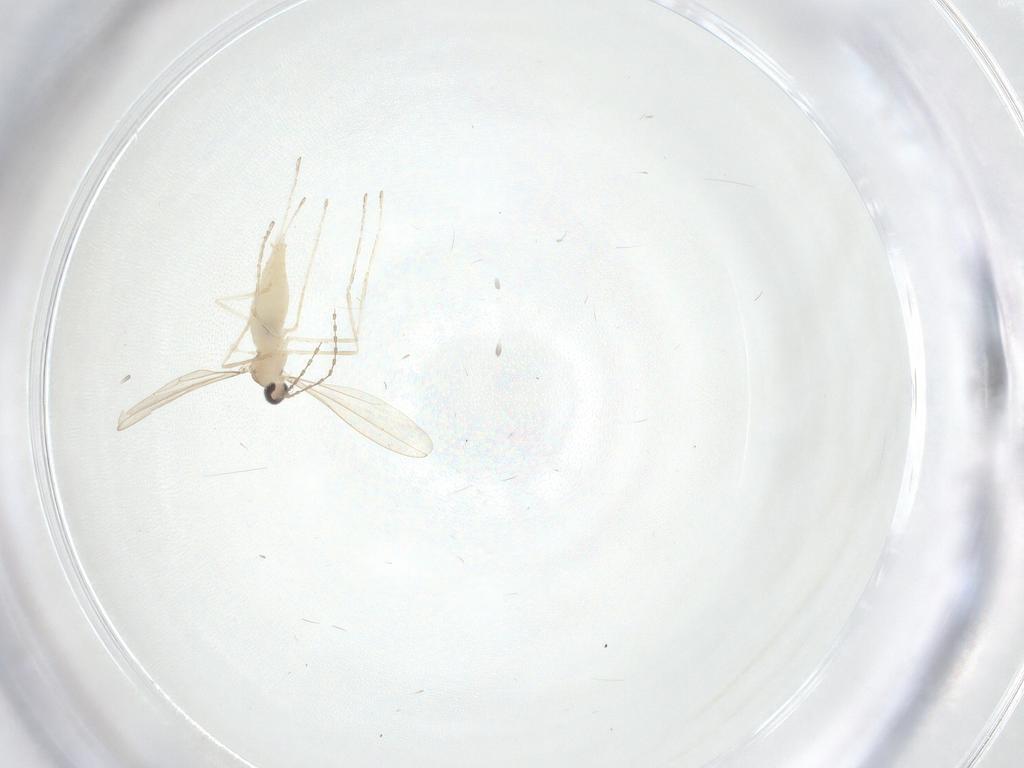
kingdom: Animalia
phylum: Arthropoda
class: Insecta
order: Diptera
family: Cecidomyiidae
